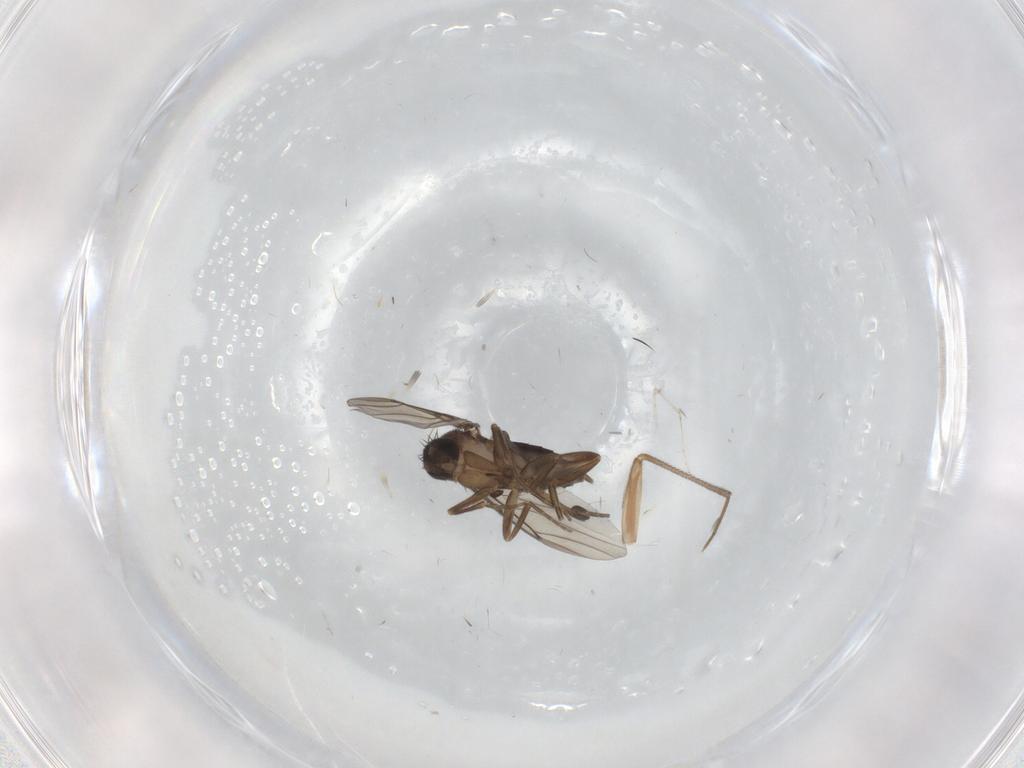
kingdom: Animalia
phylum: Arthropoda
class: Insecta
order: Diptera
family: Phoridae
